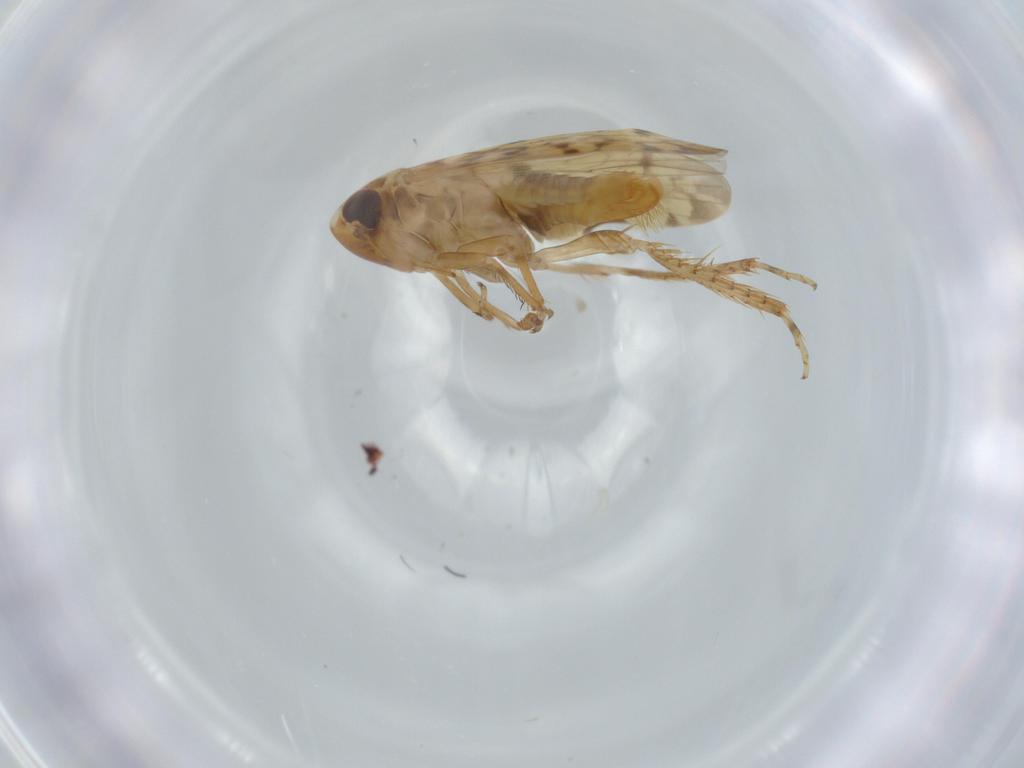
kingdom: Animalia
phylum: Arthropoda
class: Insecta
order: Hemiptera
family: Cicadellidae
